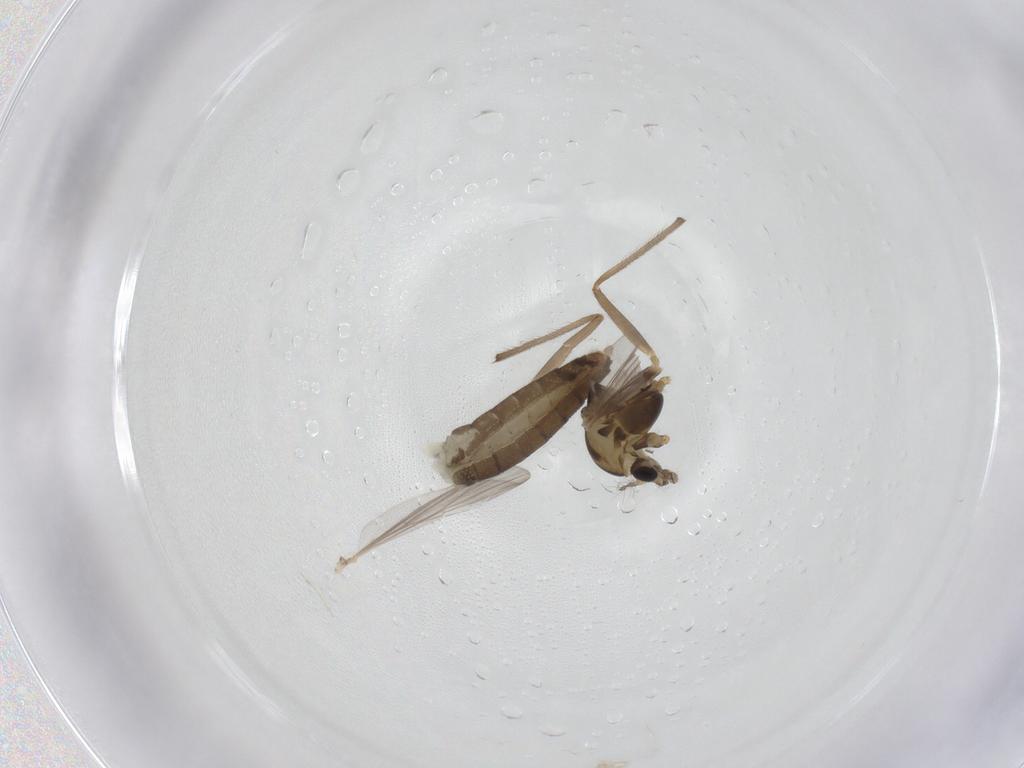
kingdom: Animalia
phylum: Arthropoda
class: Insecta
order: Diptera
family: Chironomidae
